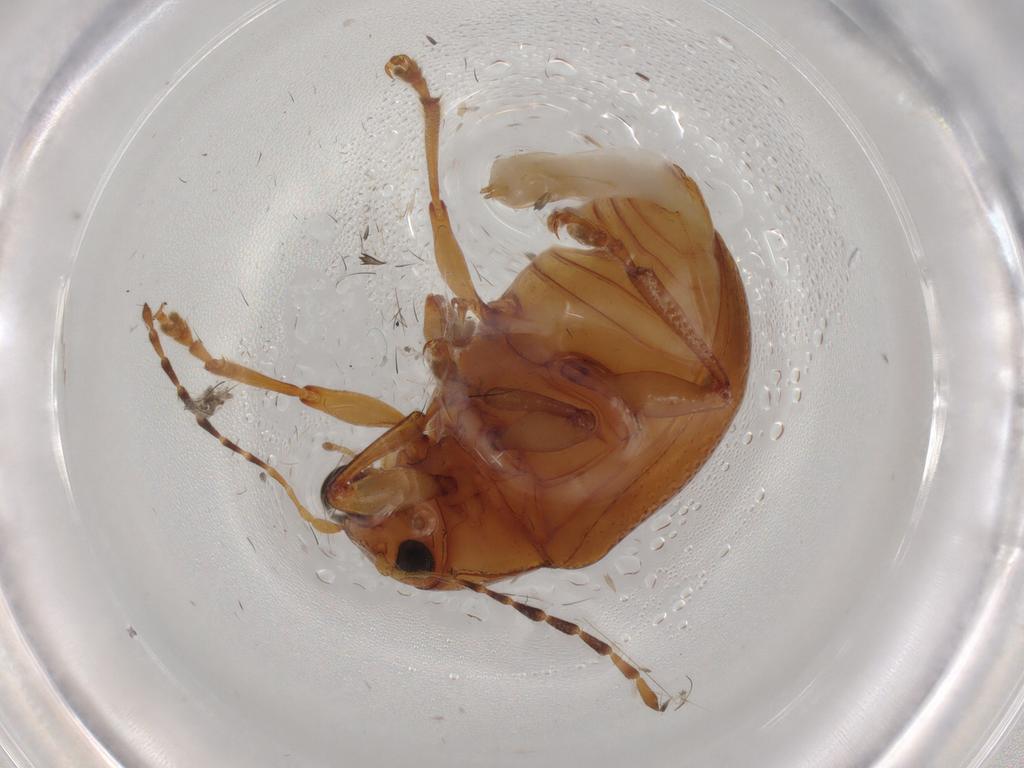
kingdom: Animalia
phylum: Arthropoda
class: Insecta
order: Coleoptera
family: Chrysomelidae
